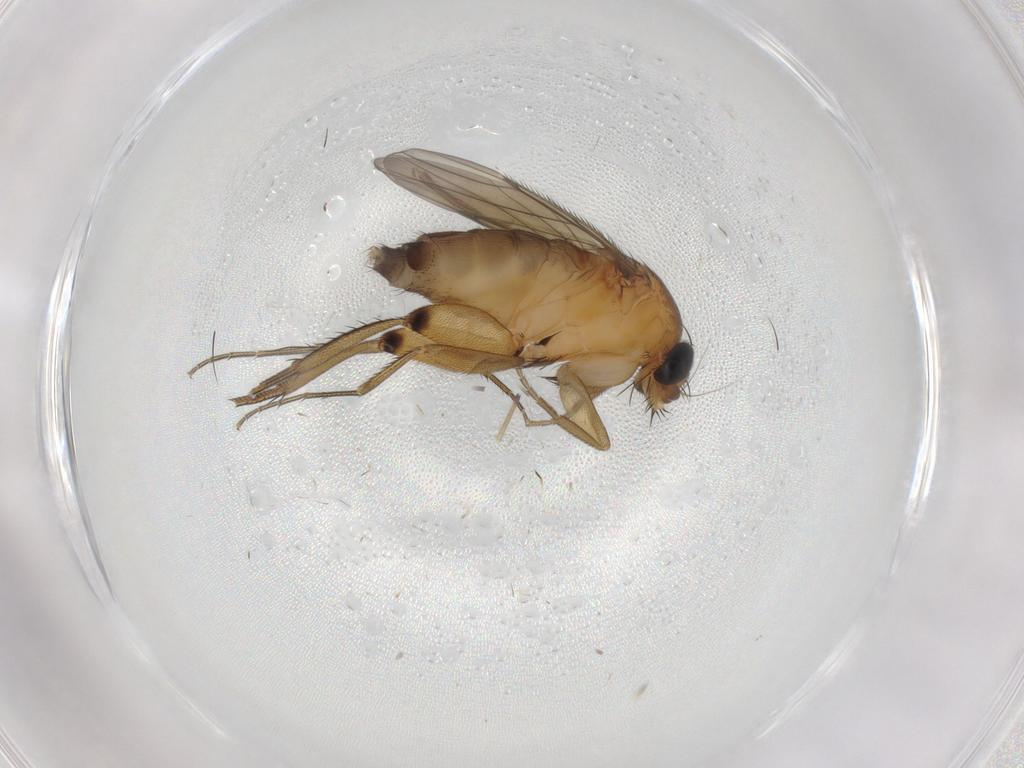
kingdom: Animalia
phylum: Arthropoda
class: Insecta
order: Diptera
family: Phoridae
